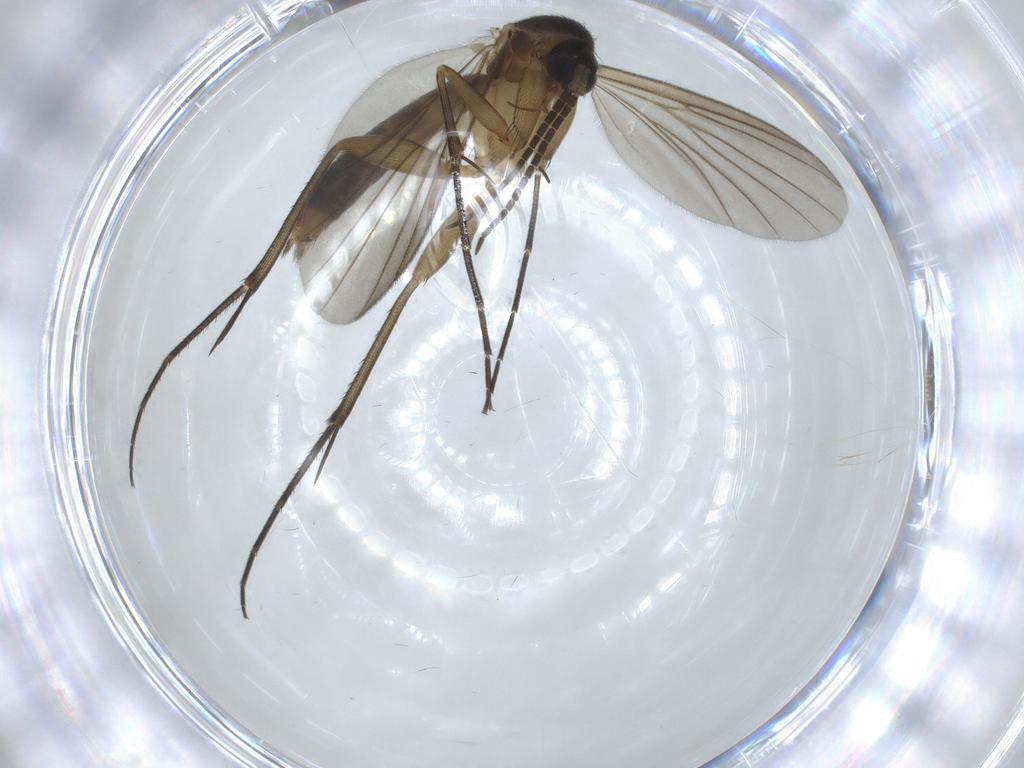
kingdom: Animalia
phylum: Arthropoda
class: Insecta
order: Diptera
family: Mycetophilidae
